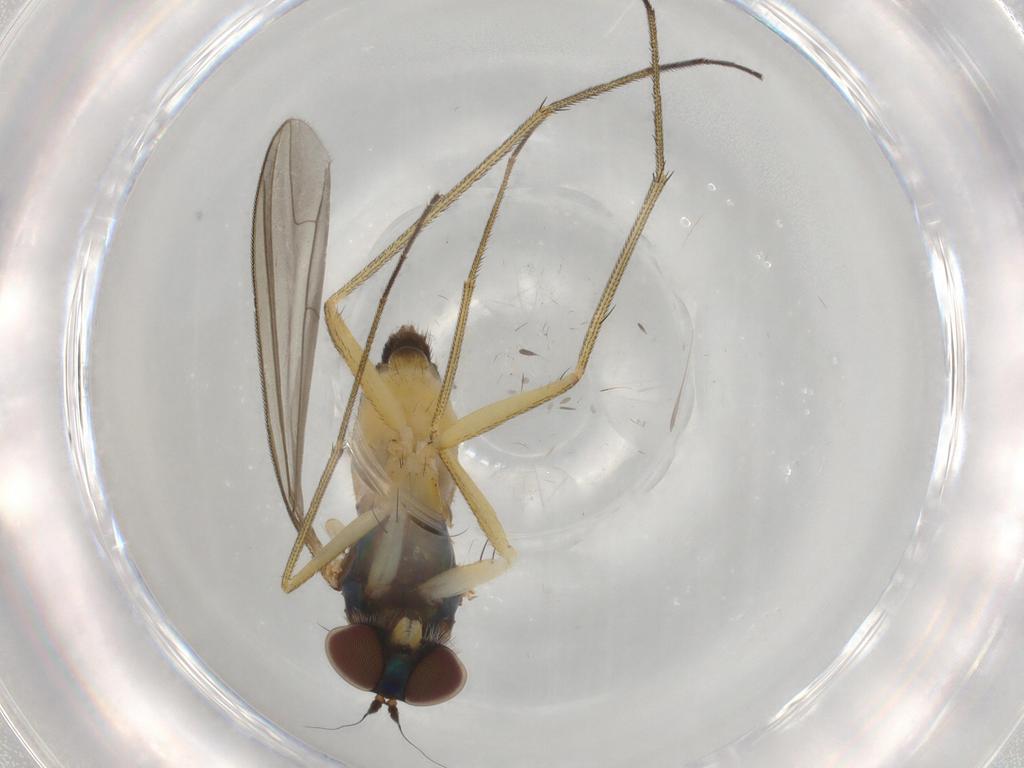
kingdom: Animalia
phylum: Arthropoda
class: Insecta
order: Diptera
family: Dolichopodidae
